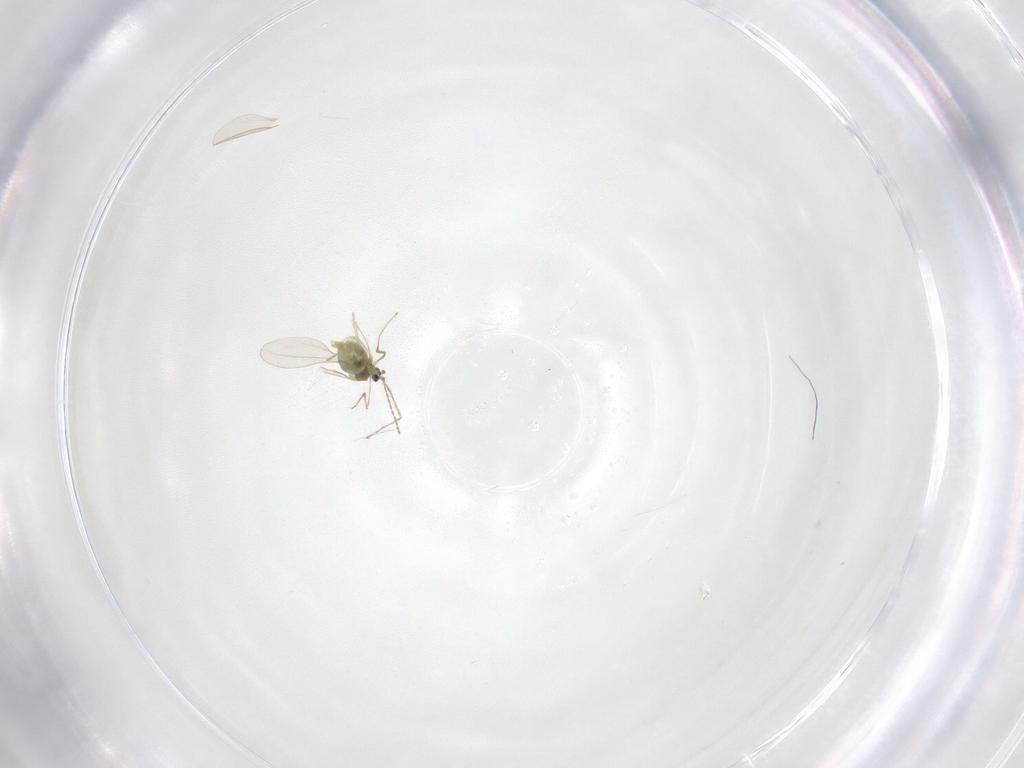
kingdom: Animalia
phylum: Arthropoda
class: Insecta
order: Diptera
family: Cecidomyiidae
